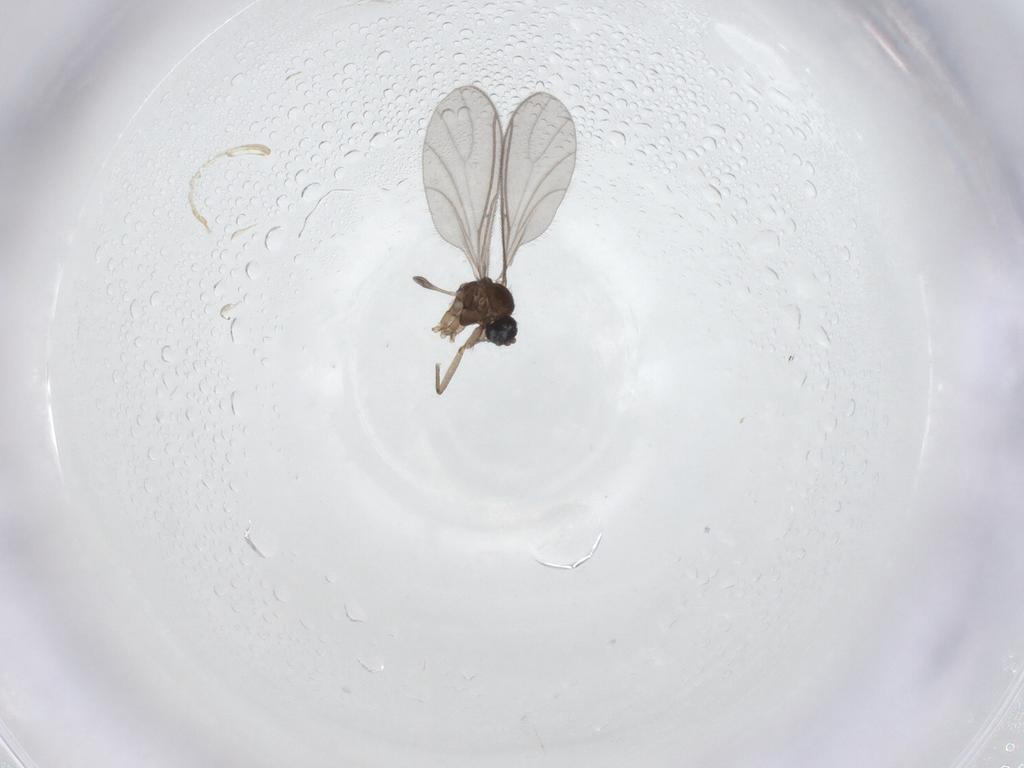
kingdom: Animalia
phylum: Arthropoda
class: Insecta
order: Diptera
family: Sciaridae
